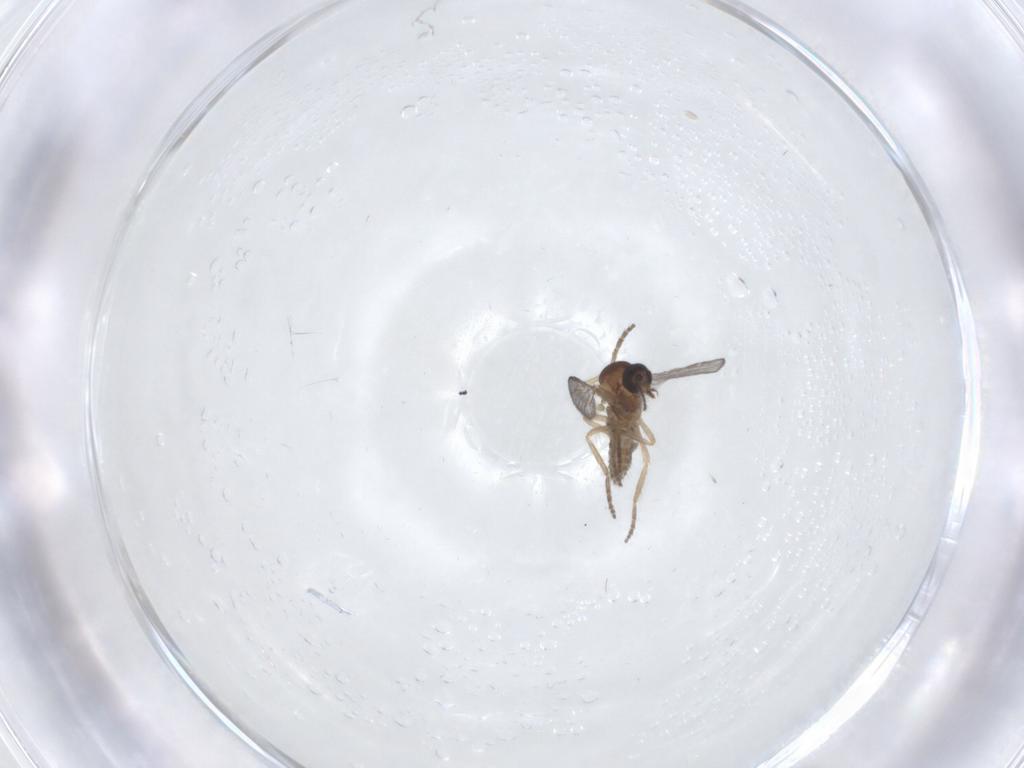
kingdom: Animalia
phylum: Arthropoda
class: Insecta
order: Diptera
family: Ceratopogonidae
